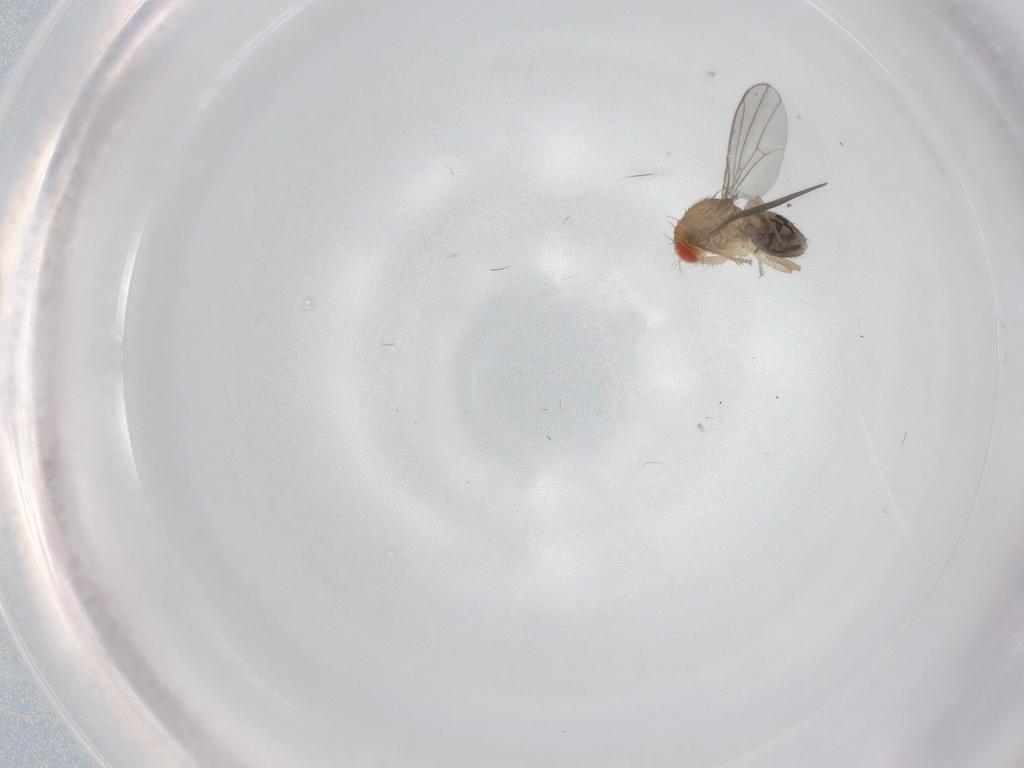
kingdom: Animalia
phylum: Arthropoda
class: Insecta
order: Diptera
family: Drosophilidae
